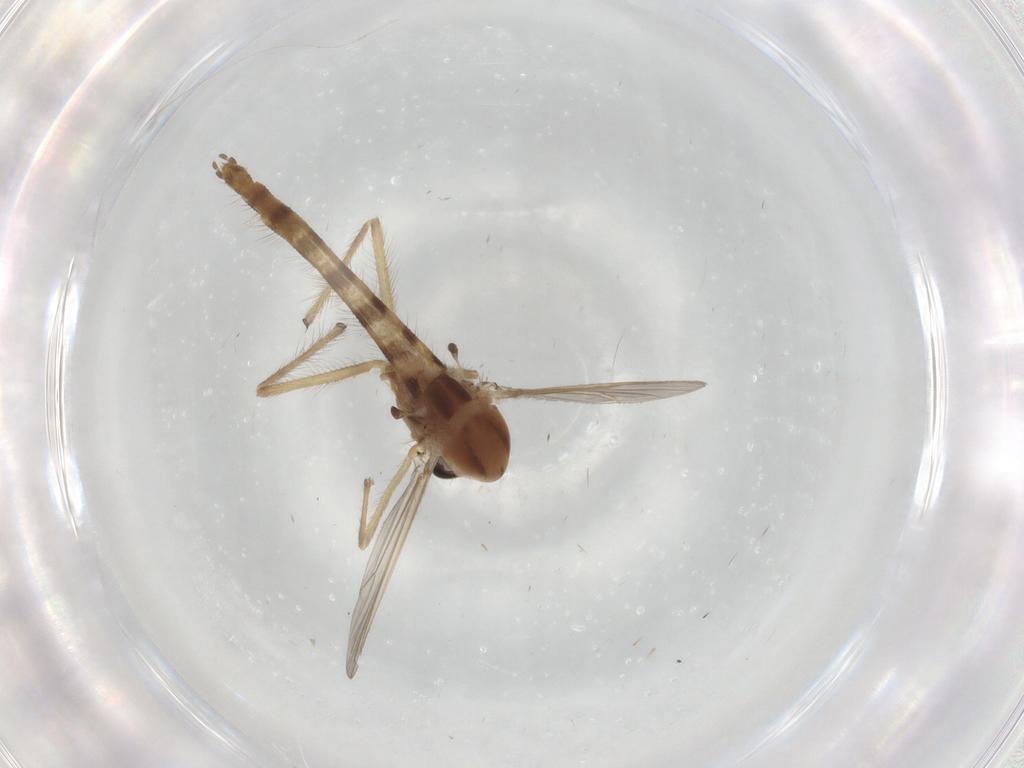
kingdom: Animalia
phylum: Arthropoda
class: Insecta
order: Diptera
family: Chironomidae
